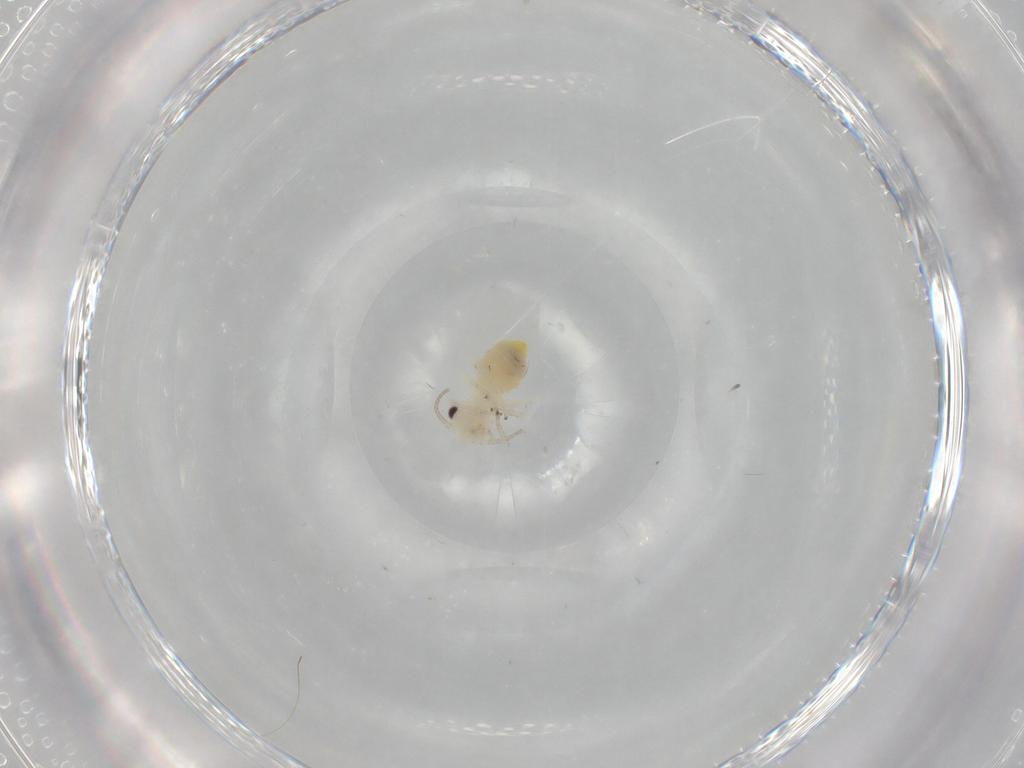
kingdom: Animalia
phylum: Arthropoda
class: Insecta
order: Psocodea
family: Caeciliusidae
